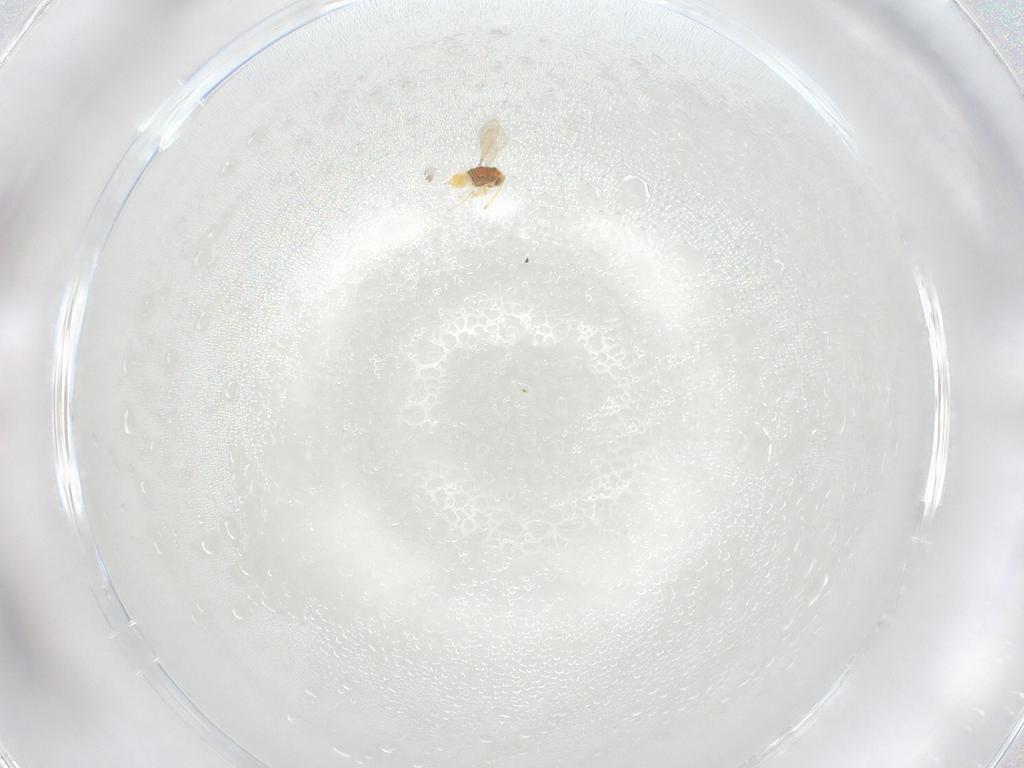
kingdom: Animalia
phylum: Arthropoda
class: Insecta
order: Diptera
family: Cecidomyiidae
